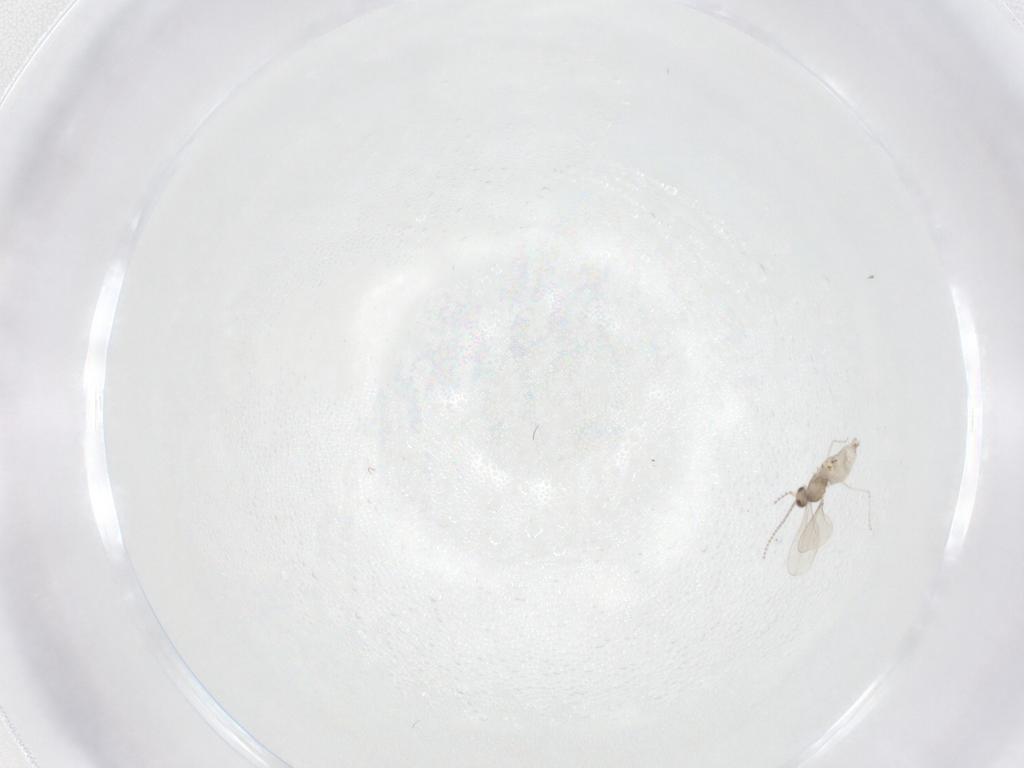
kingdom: Animalia
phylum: Arthropoda
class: Insecta
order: Diptera
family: Cecidomyiidae
